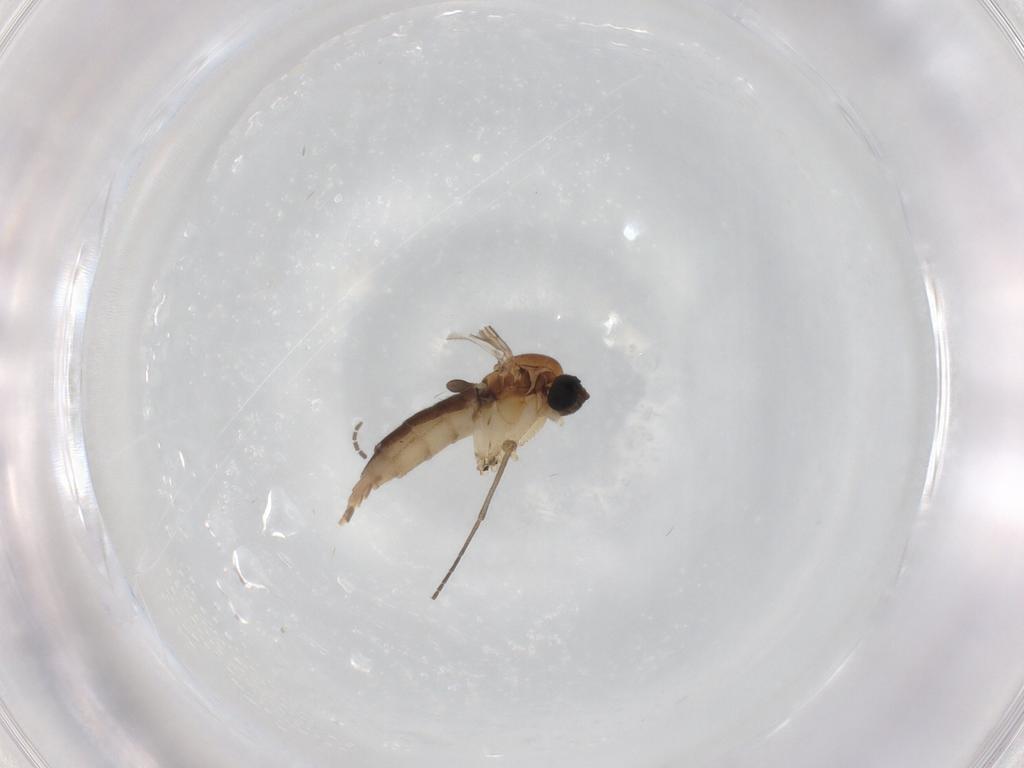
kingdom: Animalia
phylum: Arthropoda
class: Insecta
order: Diptera
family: Sciaridae
